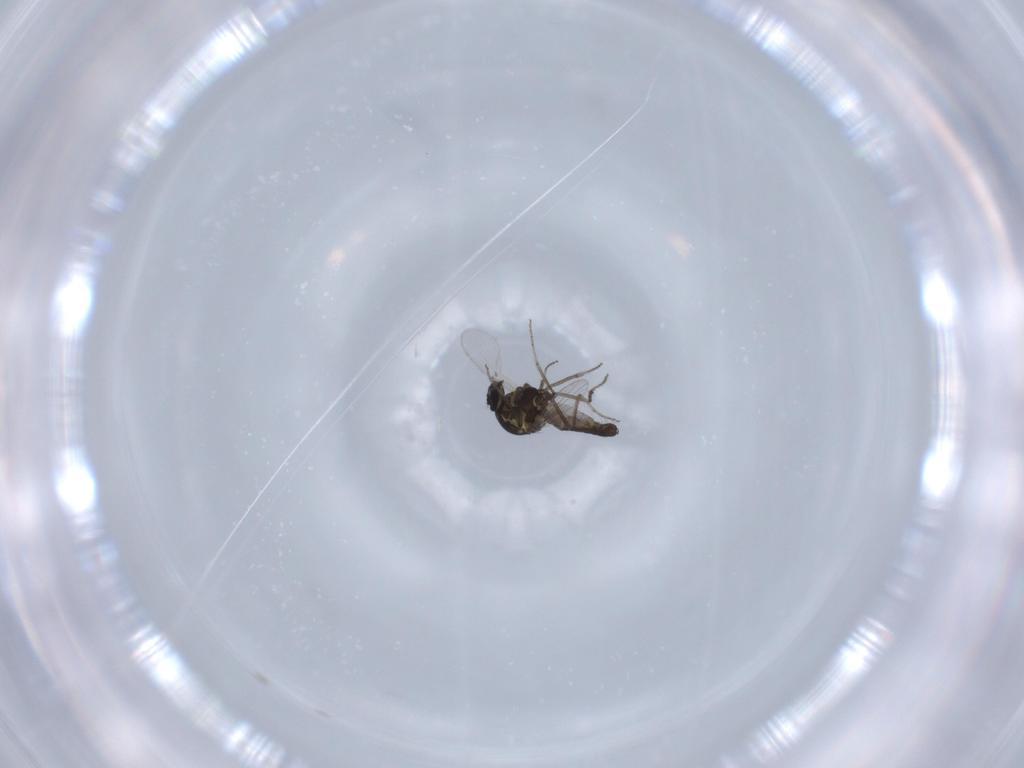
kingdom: Animalia
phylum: Arthropoda
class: Insecta
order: Diptera
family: Ceratopogonidae
